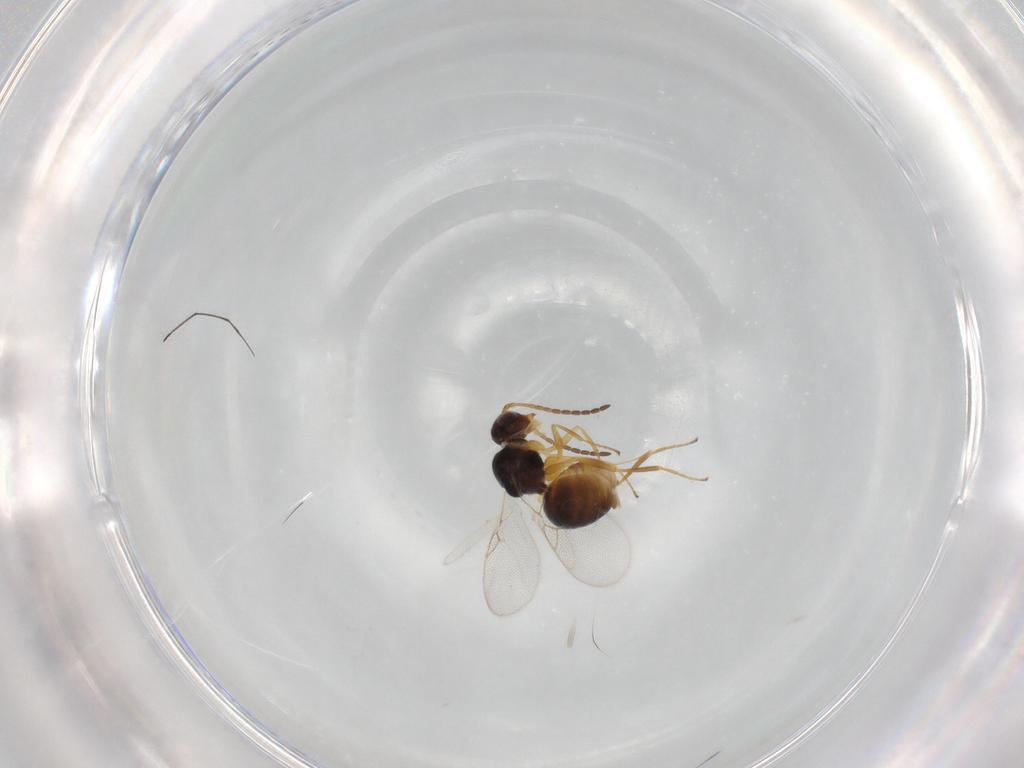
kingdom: Animalia
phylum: Arthropoda
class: Insecta
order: Hymenoptera
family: Figitidae
